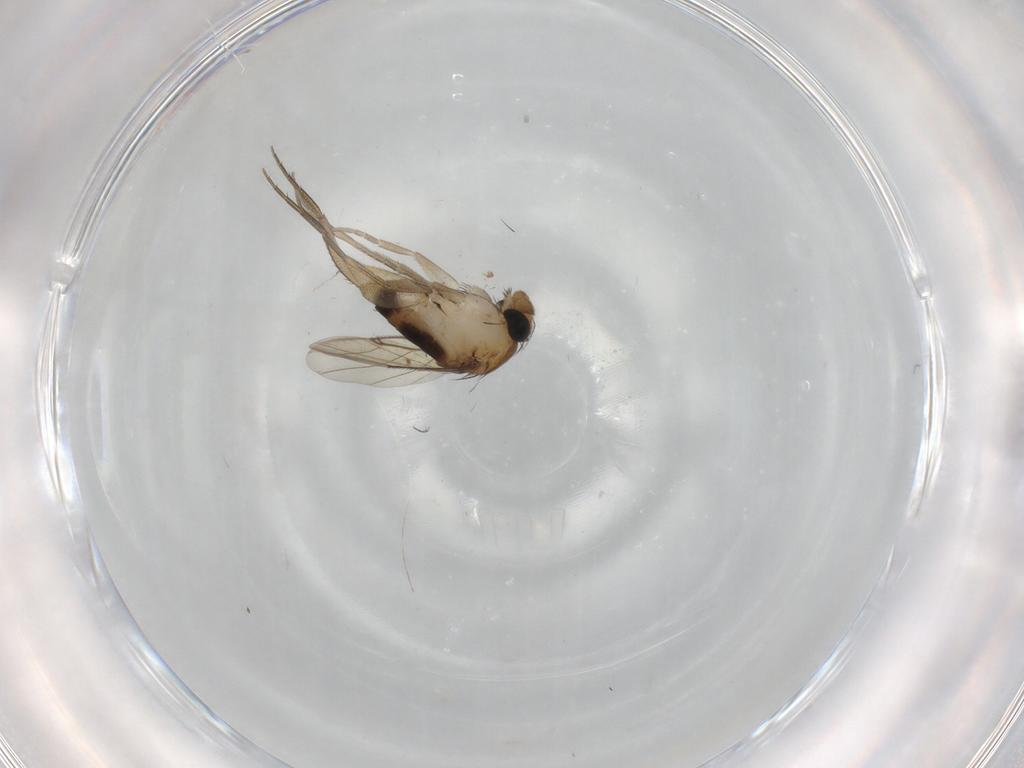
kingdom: Animalia
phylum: Arthropoda
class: Insecta
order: Diptera
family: Phoridae
